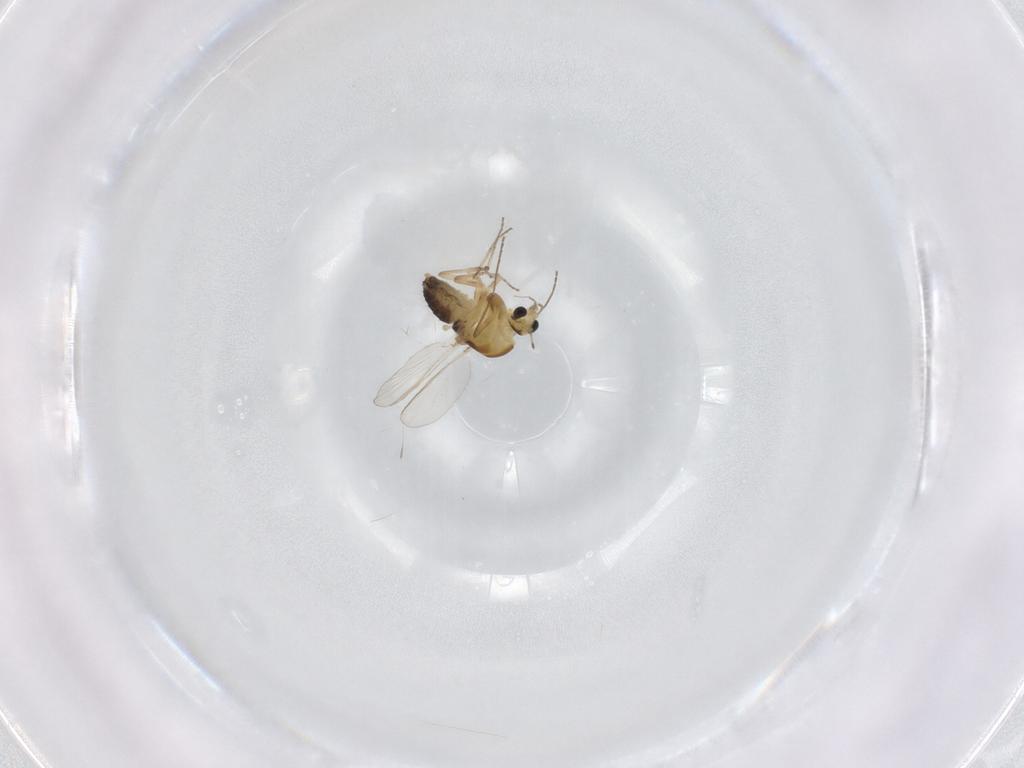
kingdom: Animalia
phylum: Arthropoda
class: Insecta
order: Diptera
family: Chironomidae
